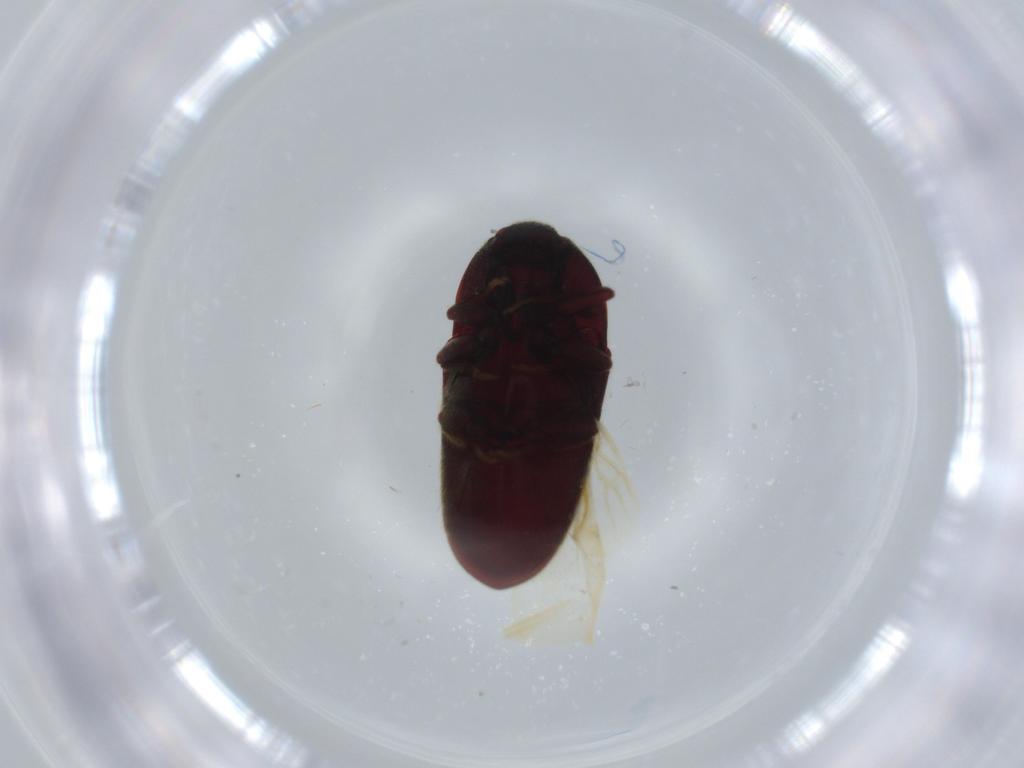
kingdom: Animalia
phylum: Arthropoda
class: Insecta
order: Coleoptera
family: Throscidae
